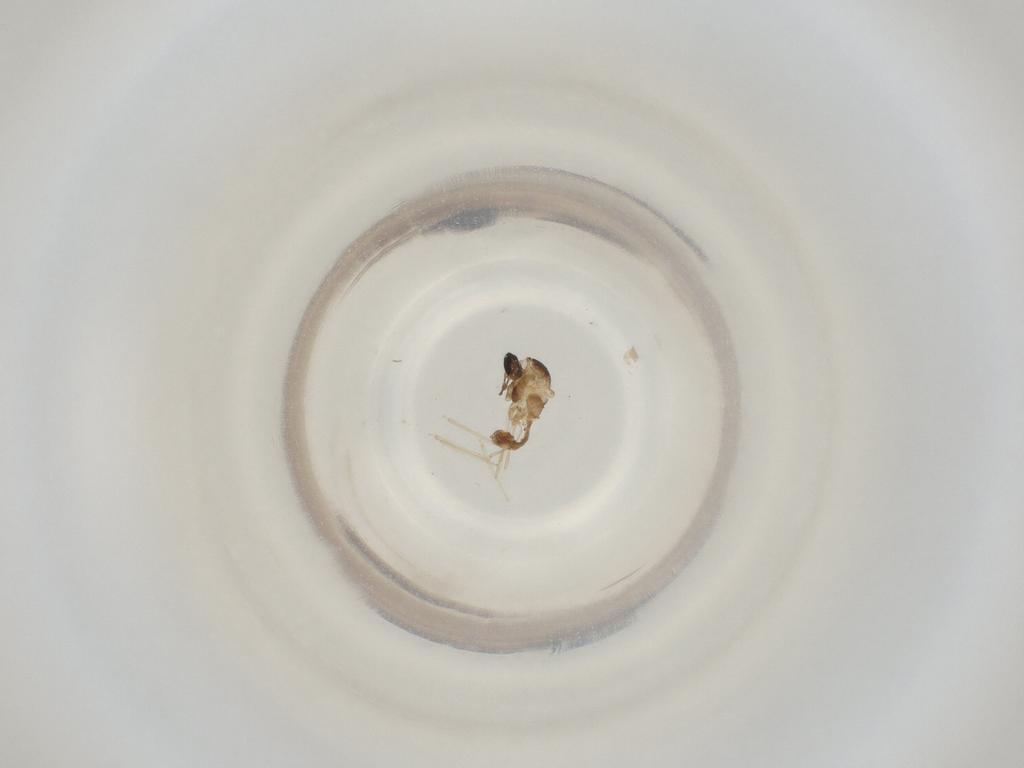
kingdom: Animalia
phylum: Arthropoda
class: Insecta
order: Diptera
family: Cecidomyiidae
